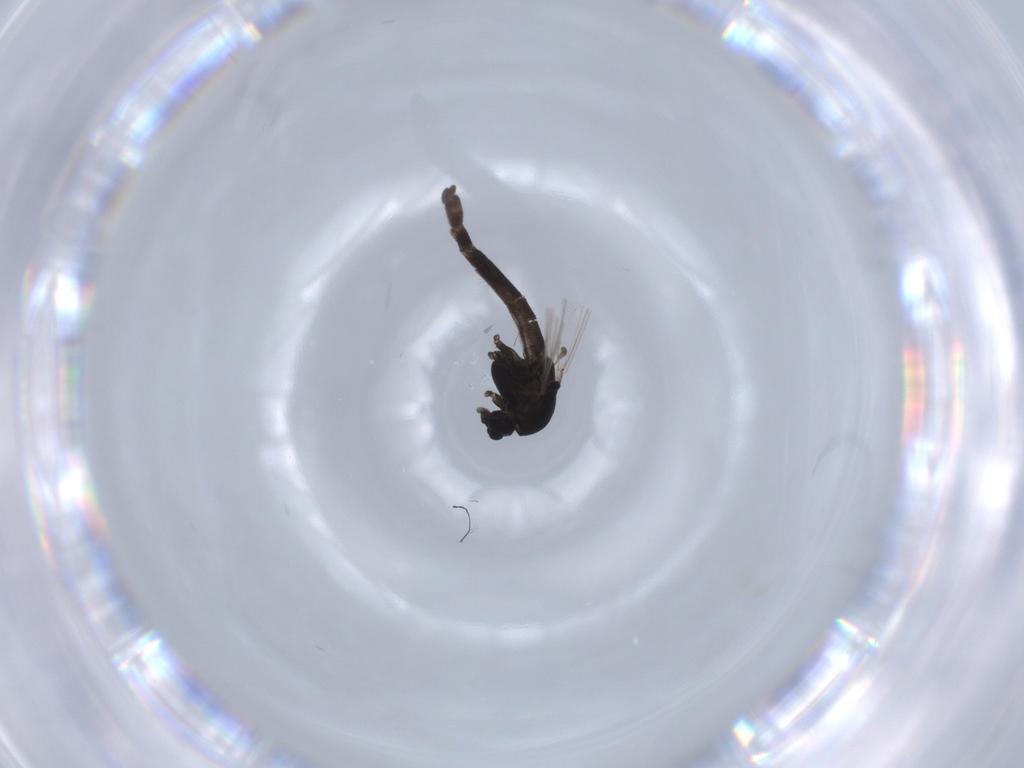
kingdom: Animalia
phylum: Arthropoda
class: Insecta
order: Diptera
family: Chironomidae
